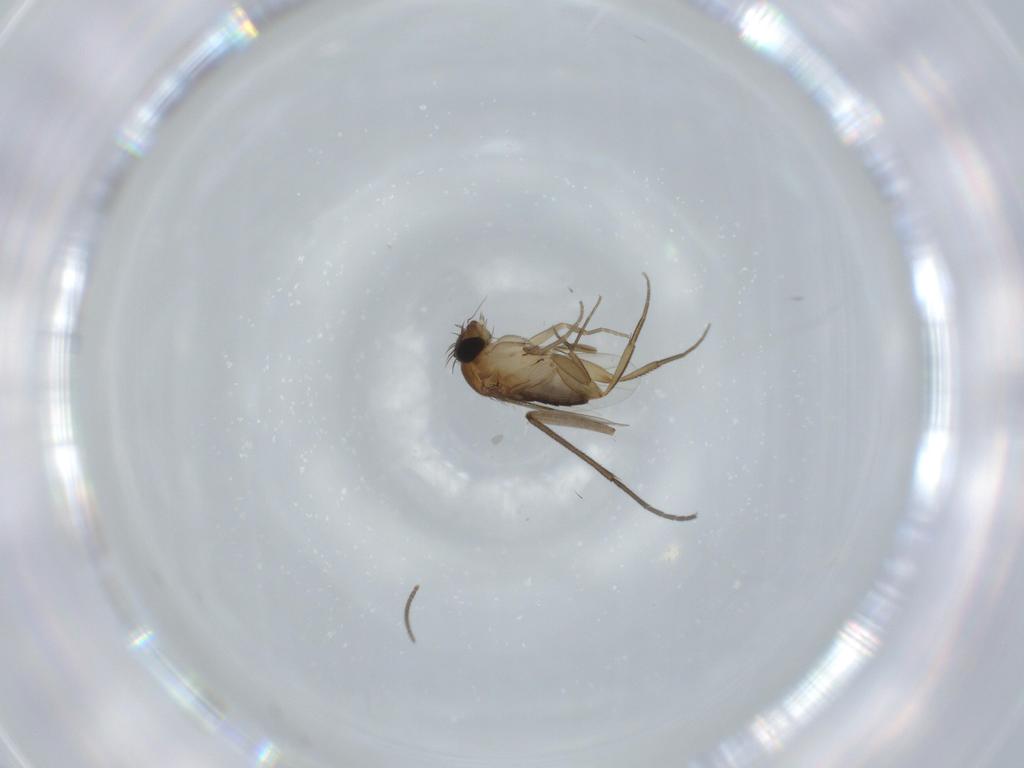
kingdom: Animalia
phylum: Arthropoda
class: Insecta
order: Diptera
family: Sciaridae
